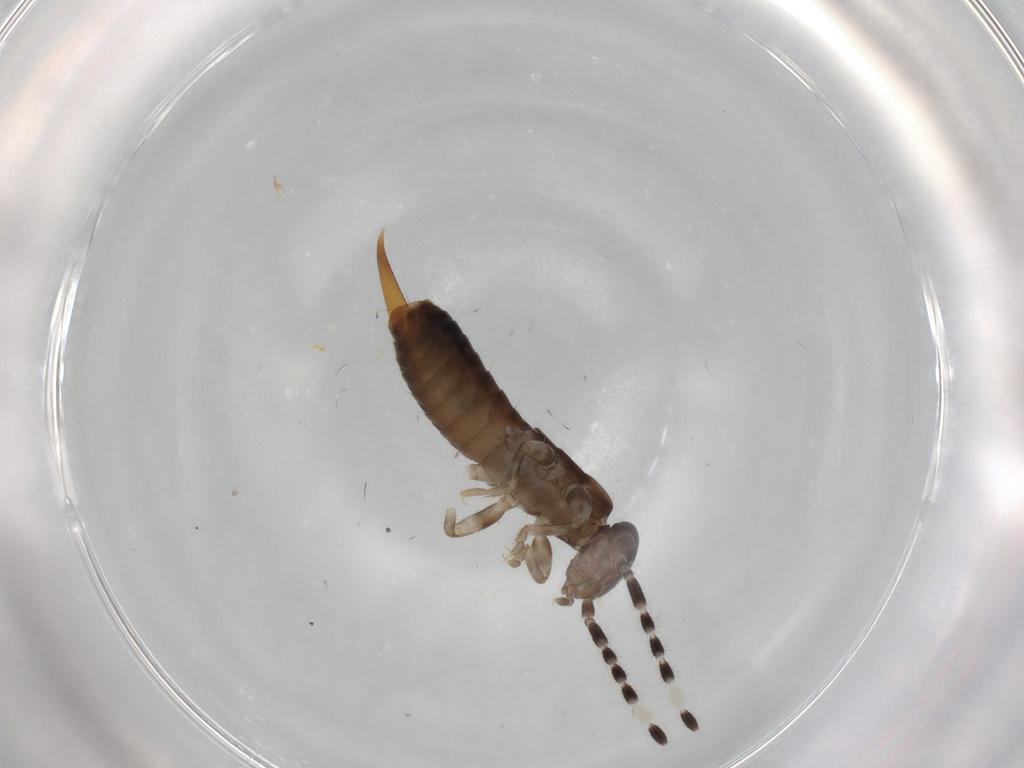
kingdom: Animalia
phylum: Arthropoda
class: Insecta
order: Dermaptera
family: Anisolabididae
